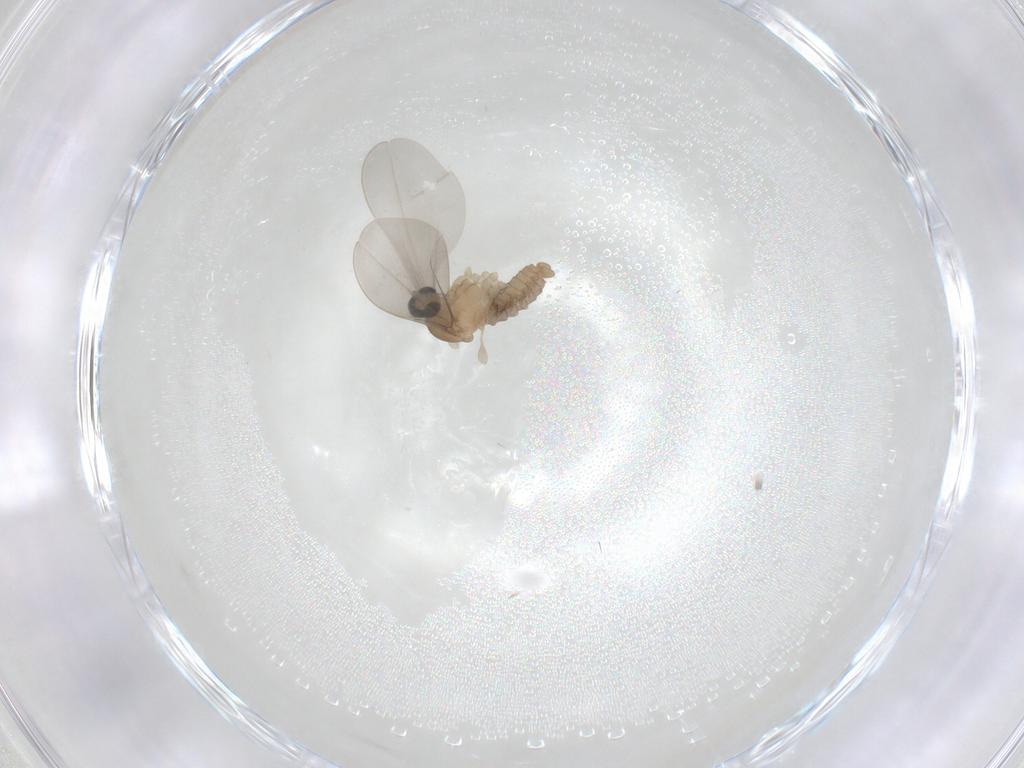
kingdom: Animalia
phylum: Arthropoda
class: Insecta
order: Diptera
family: Cecidomyiidae
